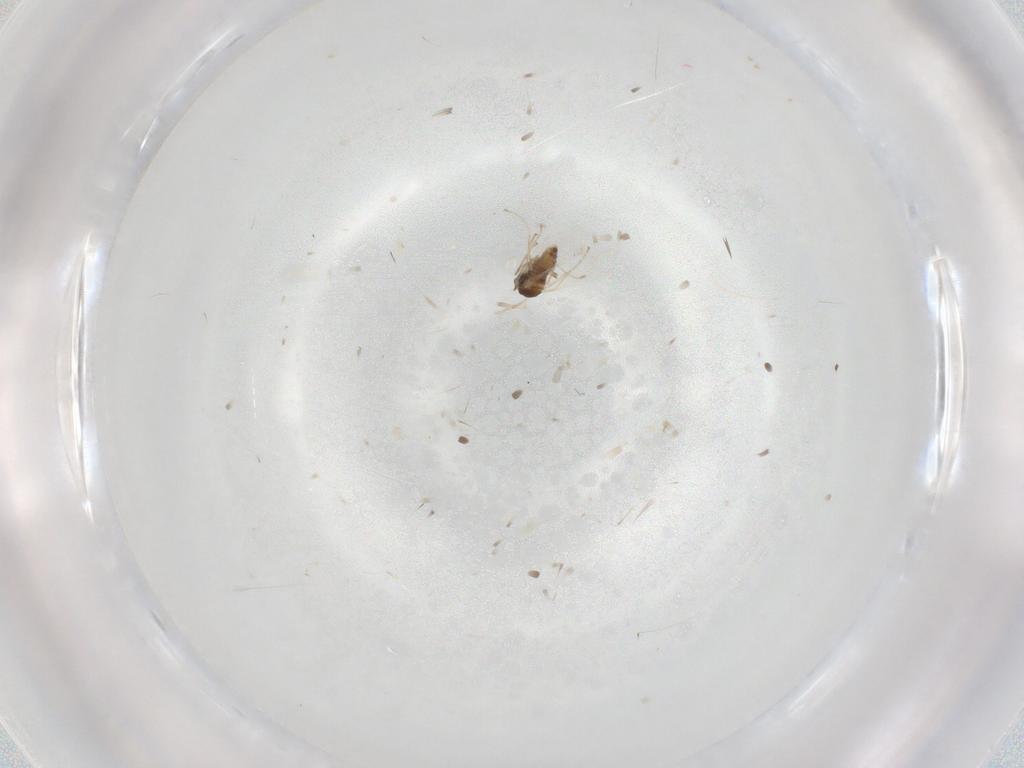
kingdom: Animalia
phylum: Arthropoda
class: Insecta
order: Diptera
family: Cecidomyiidae
